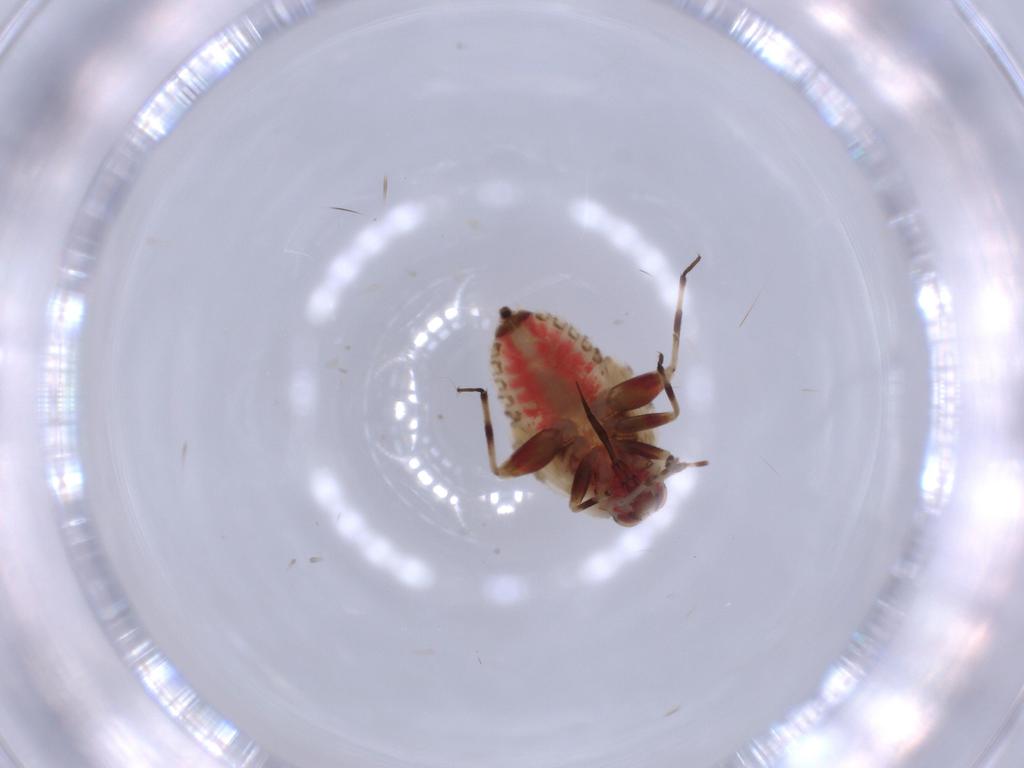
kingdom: Animalia
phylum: Arthropoda
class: Insecta
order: Hemiptera
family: Miridae
